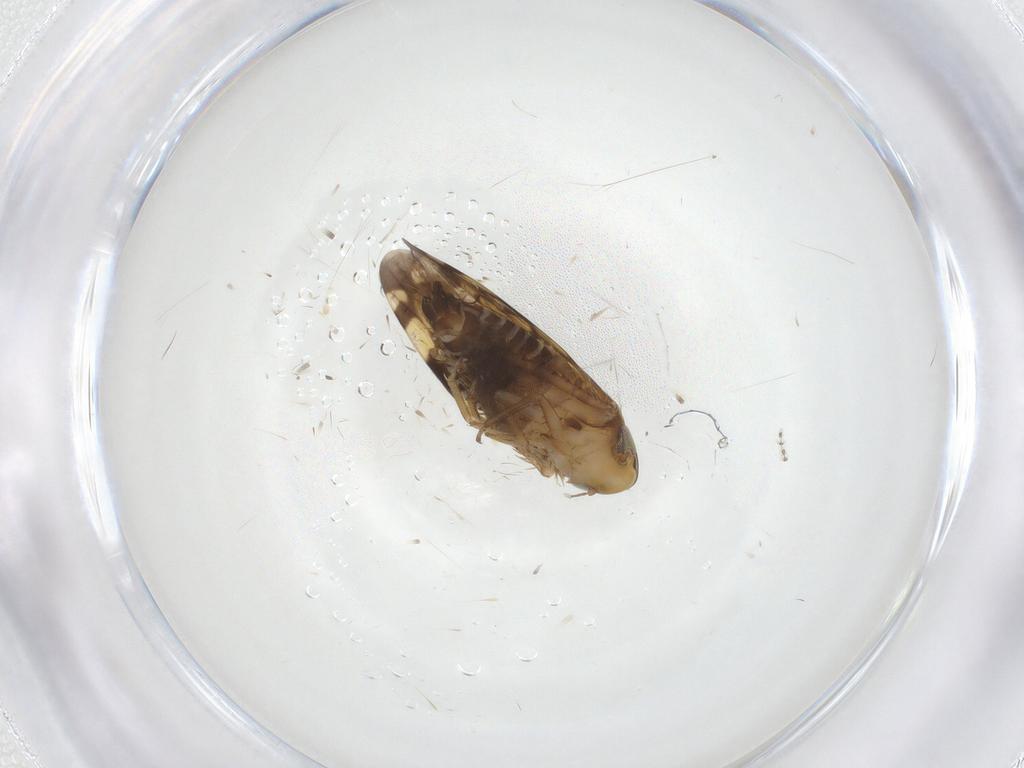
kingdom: Animalia
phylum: Arthropoda
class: Insecta
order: Hemiptera
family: Cicadellidae
